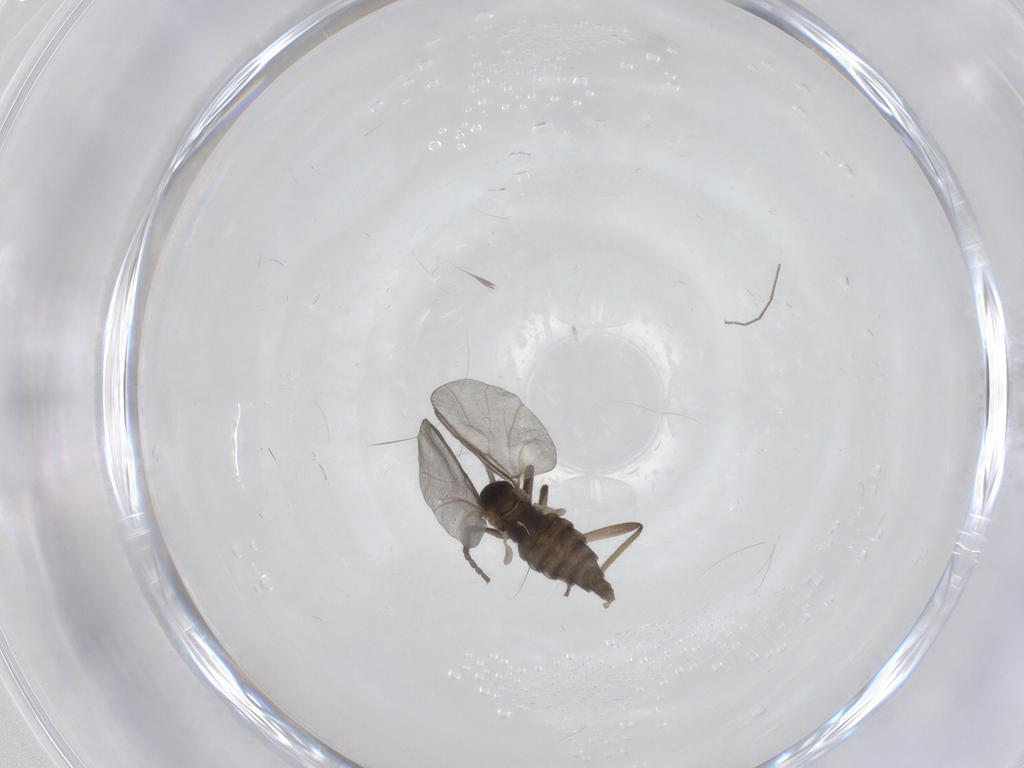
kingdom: Animalia
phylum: Arthropoda
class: Insecta
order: Diptera
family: Cecidomyiidae
